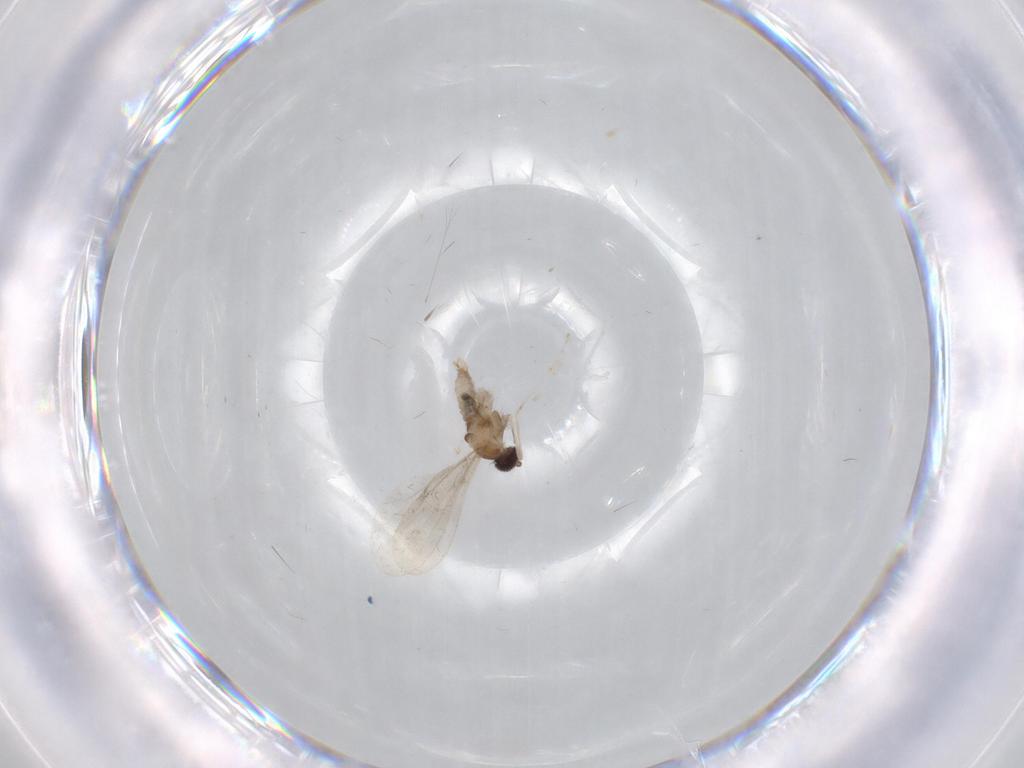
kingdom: Animalia
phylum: Arthropoda
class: Insecta
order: Diptera
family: Cecidomyiidae
